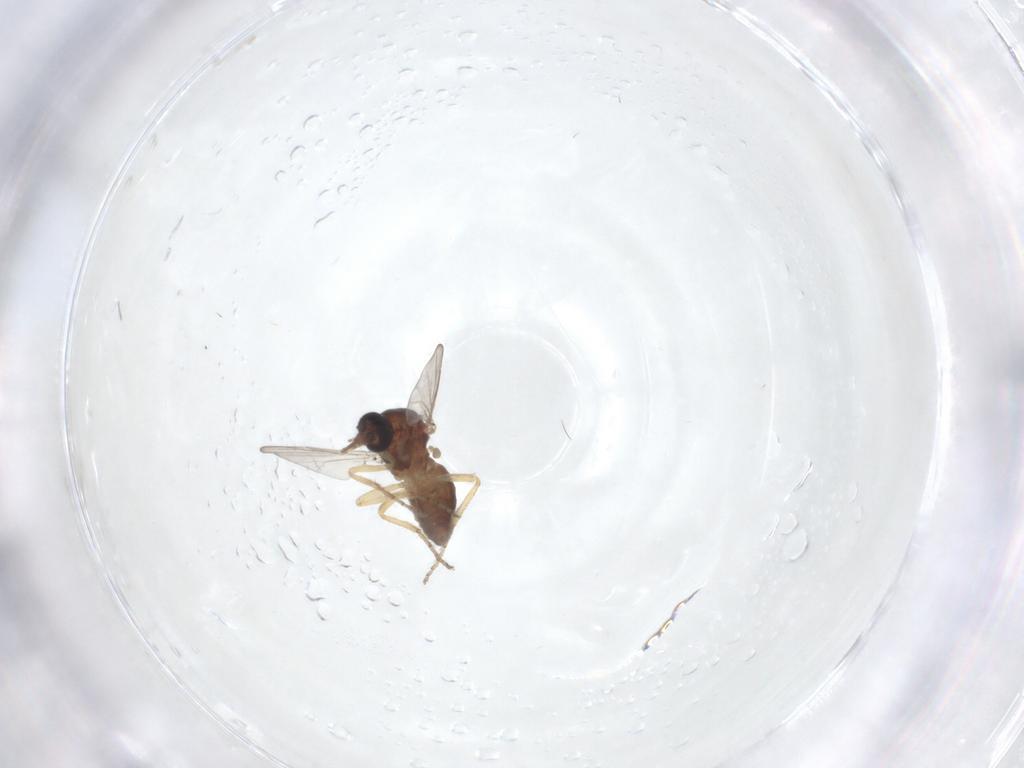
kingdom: Animalia
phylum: Arthropoda
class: Insecta
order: Diptera
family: Ceratopogonidae
